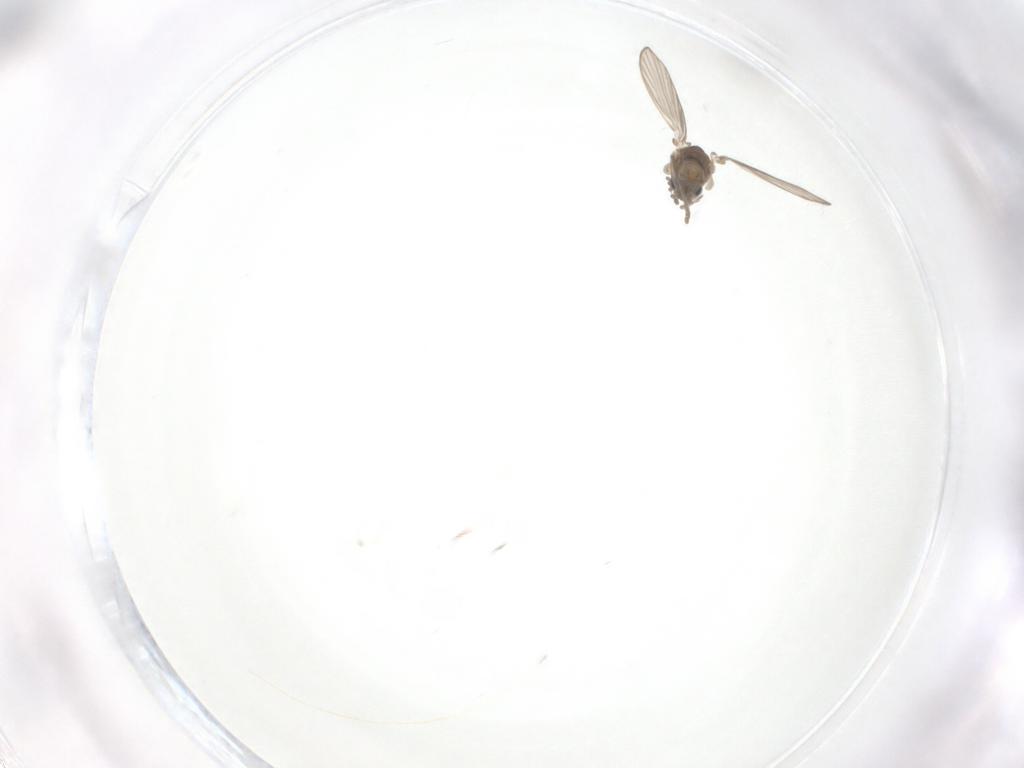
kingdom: Animalia
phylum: Arthropoda
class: Insecta
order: Diptera
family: Psychodidae
